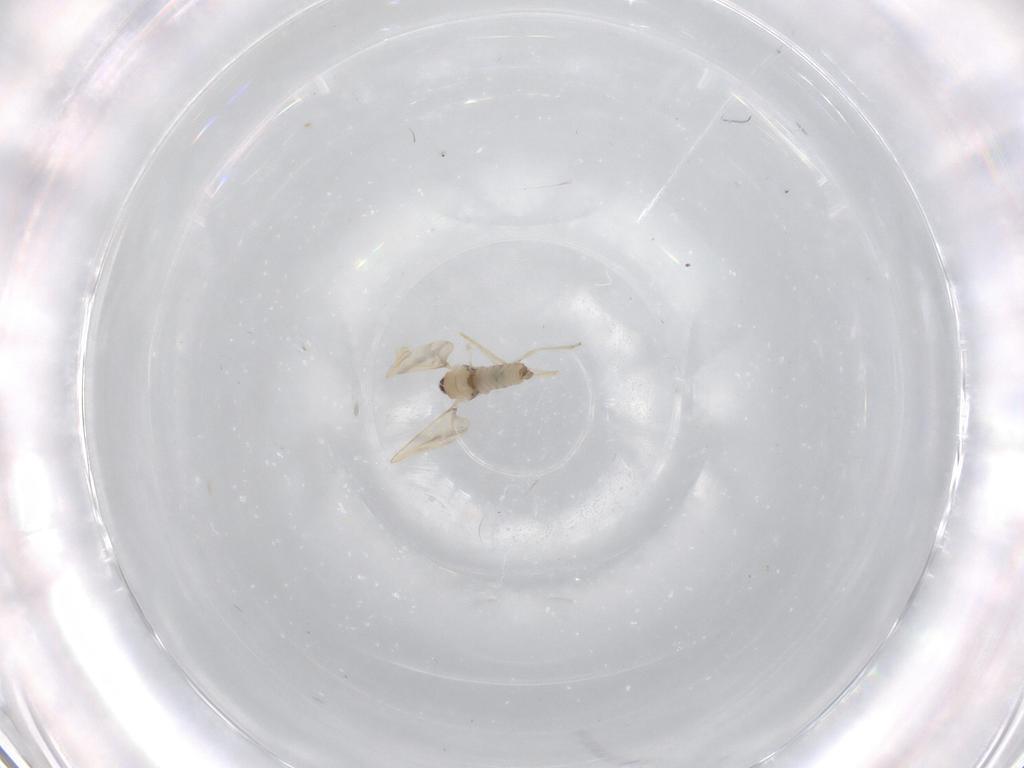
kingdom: Animalia
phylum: Arthropoda
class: Insecta
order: Diptera
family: Cecidomyiidae
